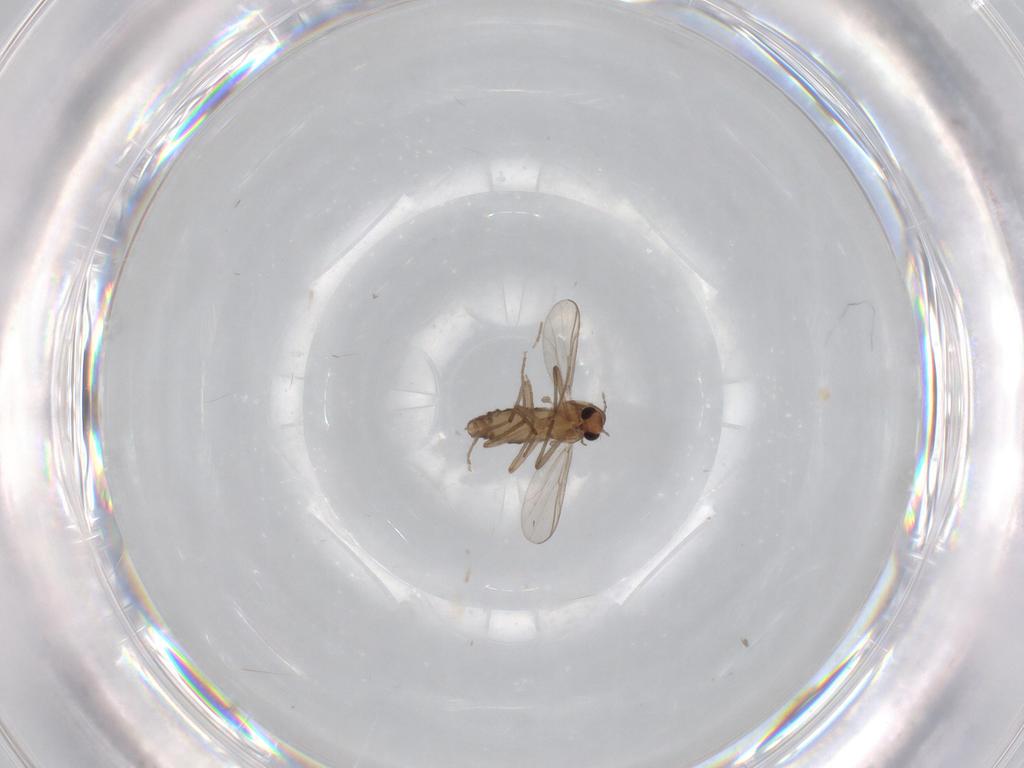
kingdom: Animalia
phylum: Arthropoda
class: Insecta
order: Diptera
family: Chironomidae
